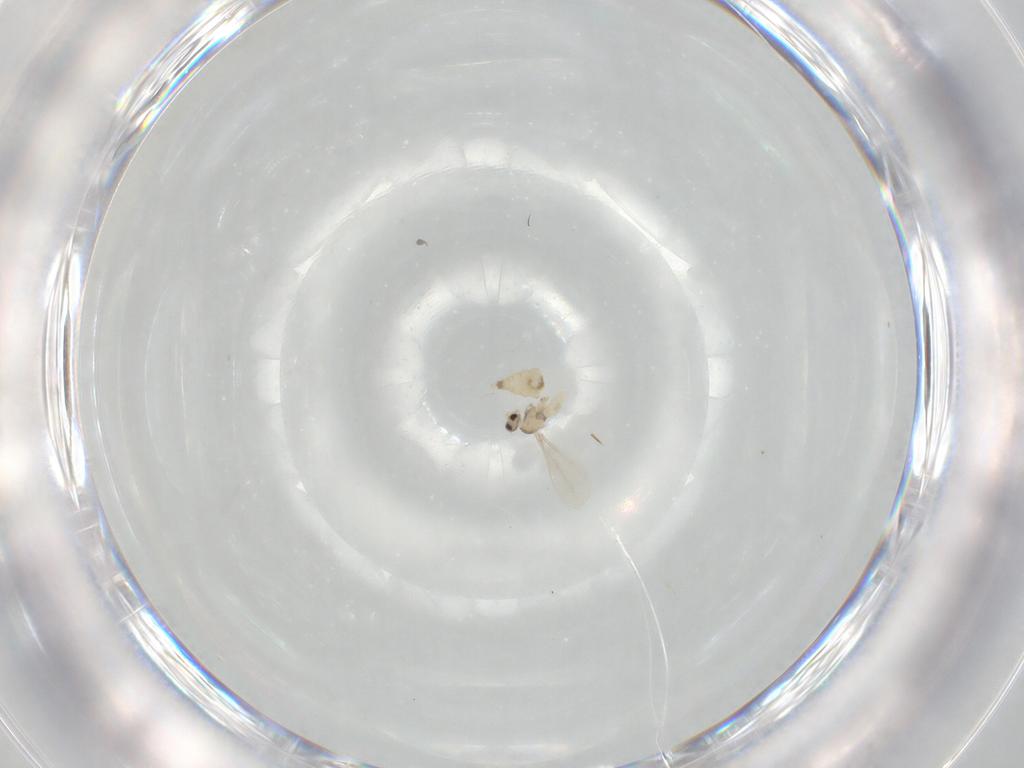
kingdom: Animalia
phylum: Arthropoda
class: Insecta
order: Diptera
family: Cecidomyiidae
